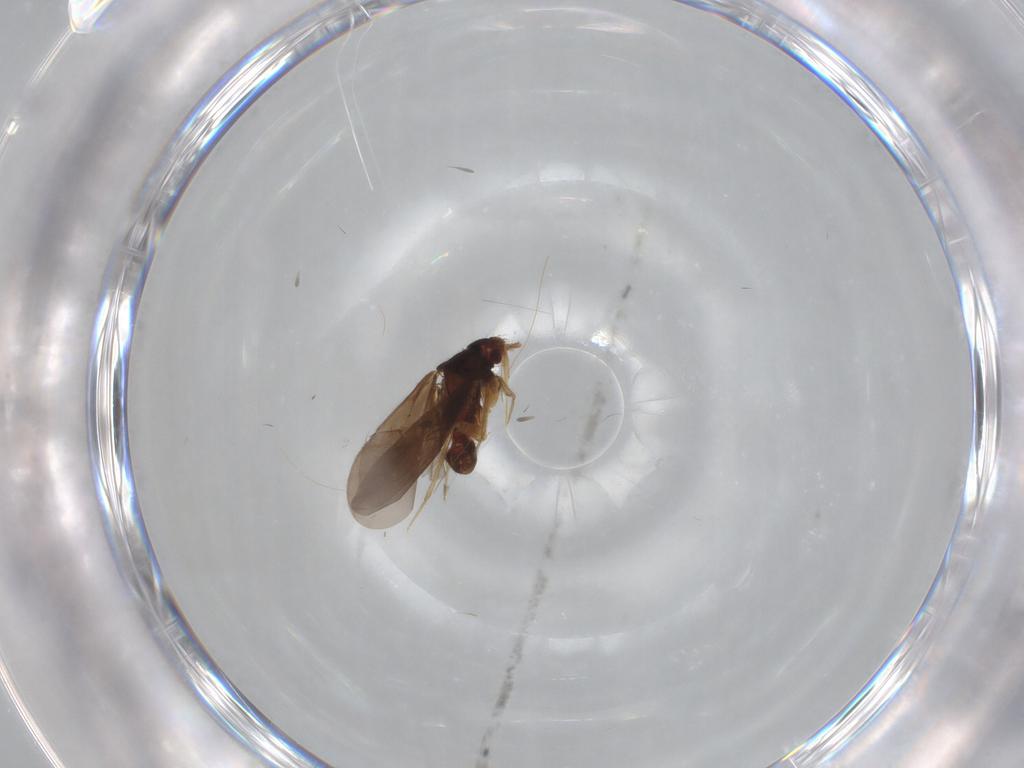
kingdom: Animalia
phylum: Arthropoda
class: Insecta
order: Hemiptera
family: Ceratocombidae
